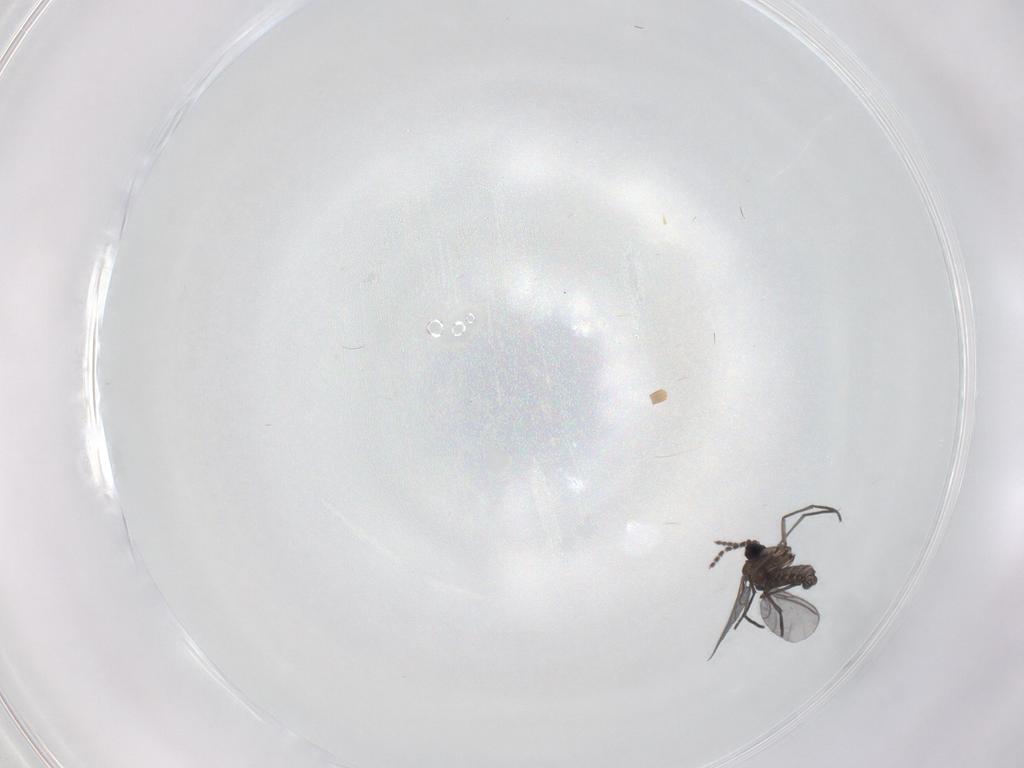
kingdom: Animalia
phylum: Arthropoda
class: Insecta
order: Diptera
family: Sciaridae
